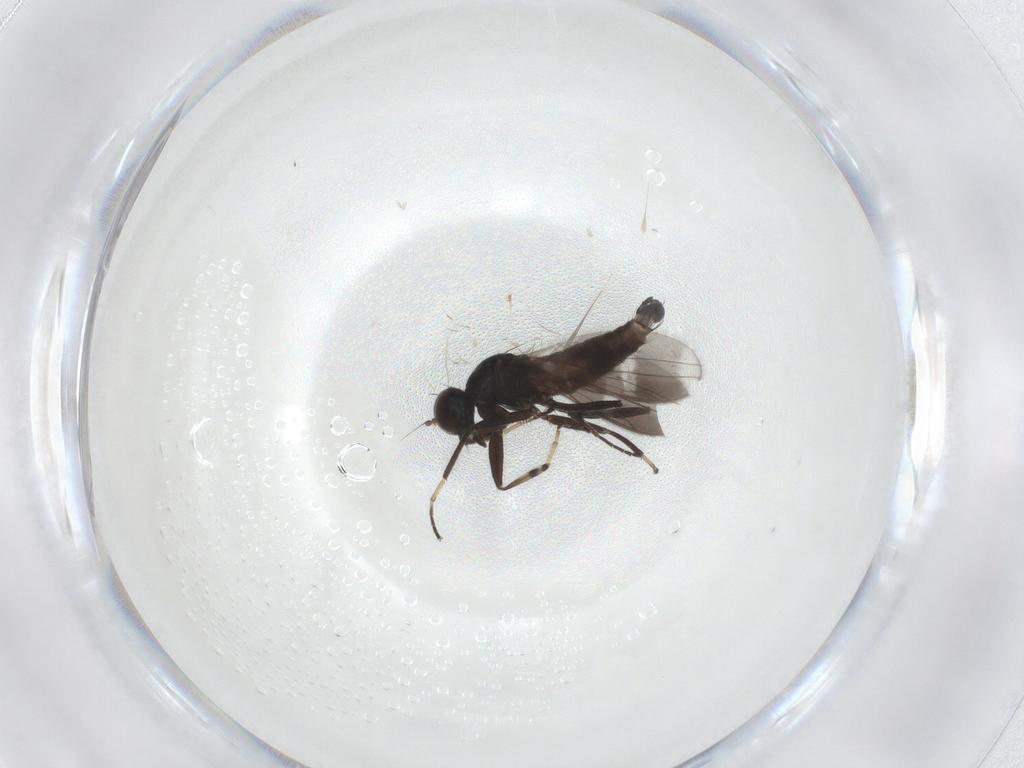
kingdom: Animalia
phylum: Arthropoda
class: Insecta
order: Diptera
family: Hybotidae
